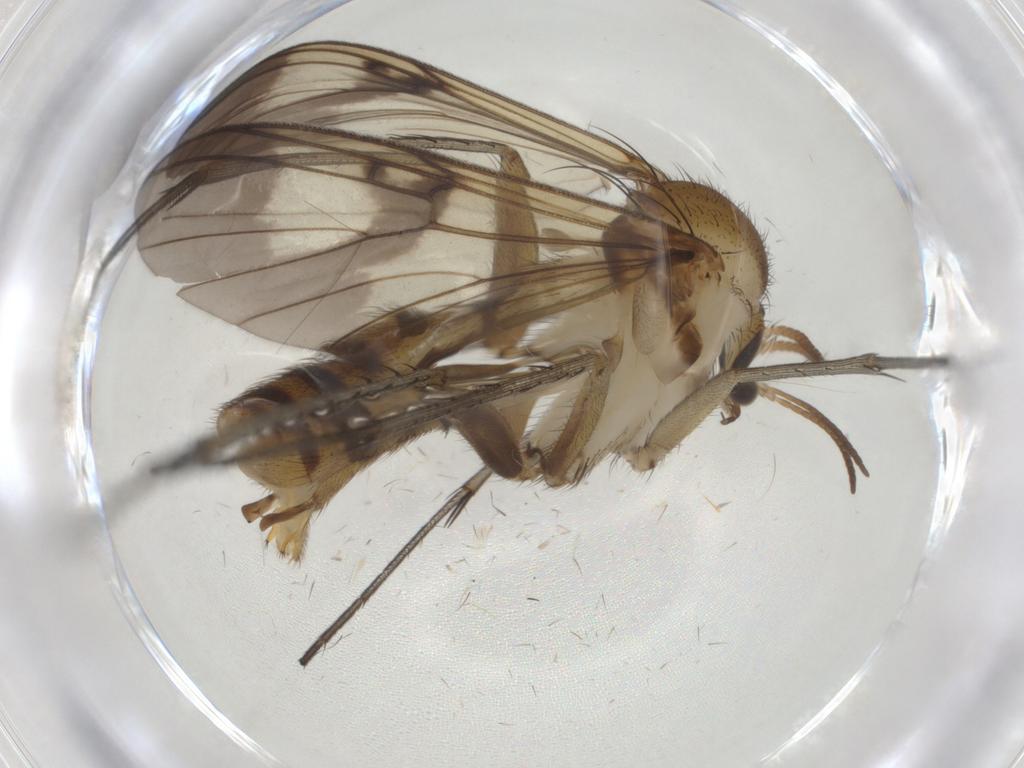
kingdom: Animalia
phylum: Arthropoda
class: Insecta
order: Diptera
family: Mycetophilidae
